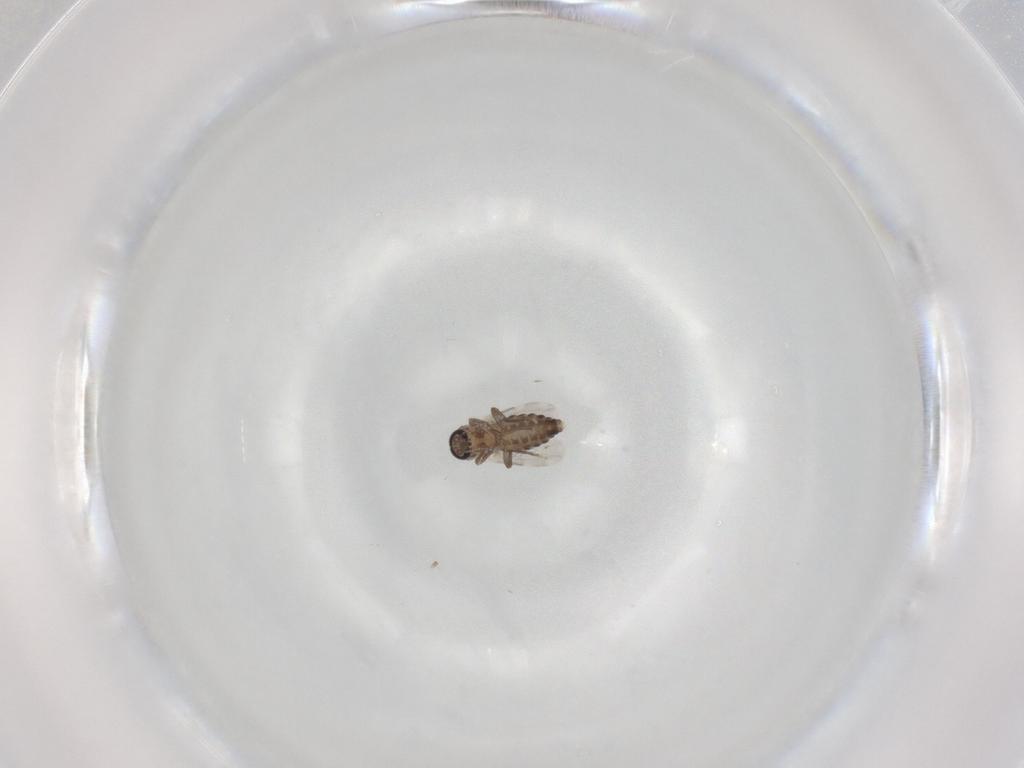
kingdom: Animalia
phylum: Arthropoda
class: Insecta
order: Diptera
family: Ceratopogonidae
